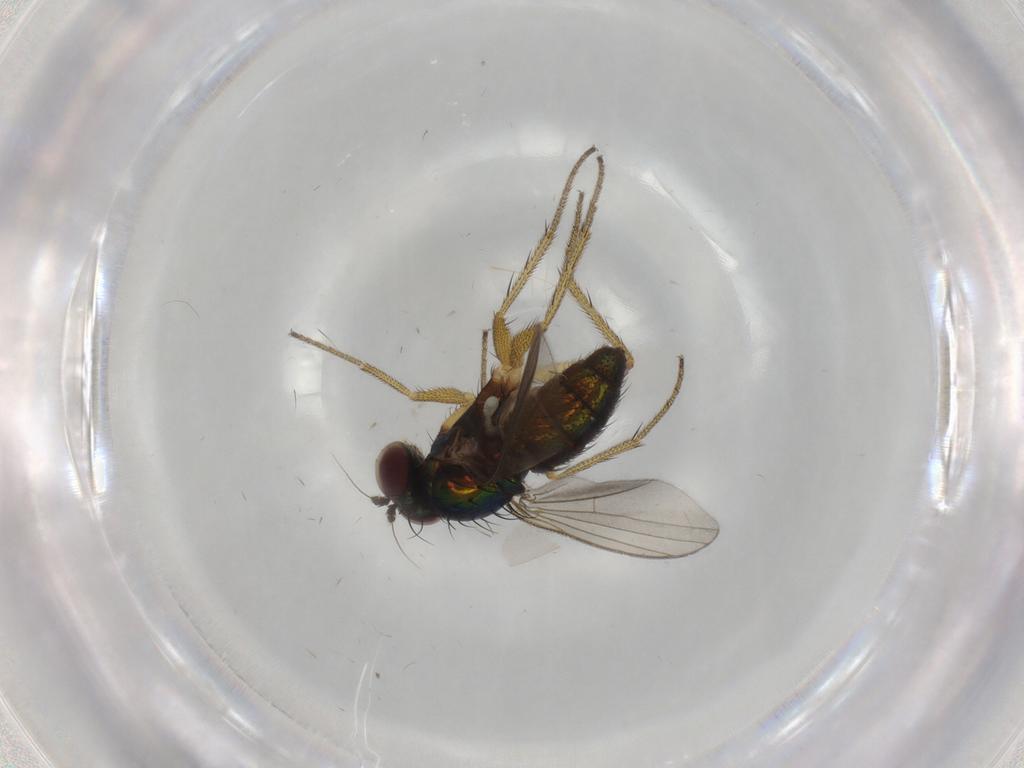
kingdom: Animalia
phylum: Arthropoda
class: Insecta
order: Diptera
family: Dolichopodidae
